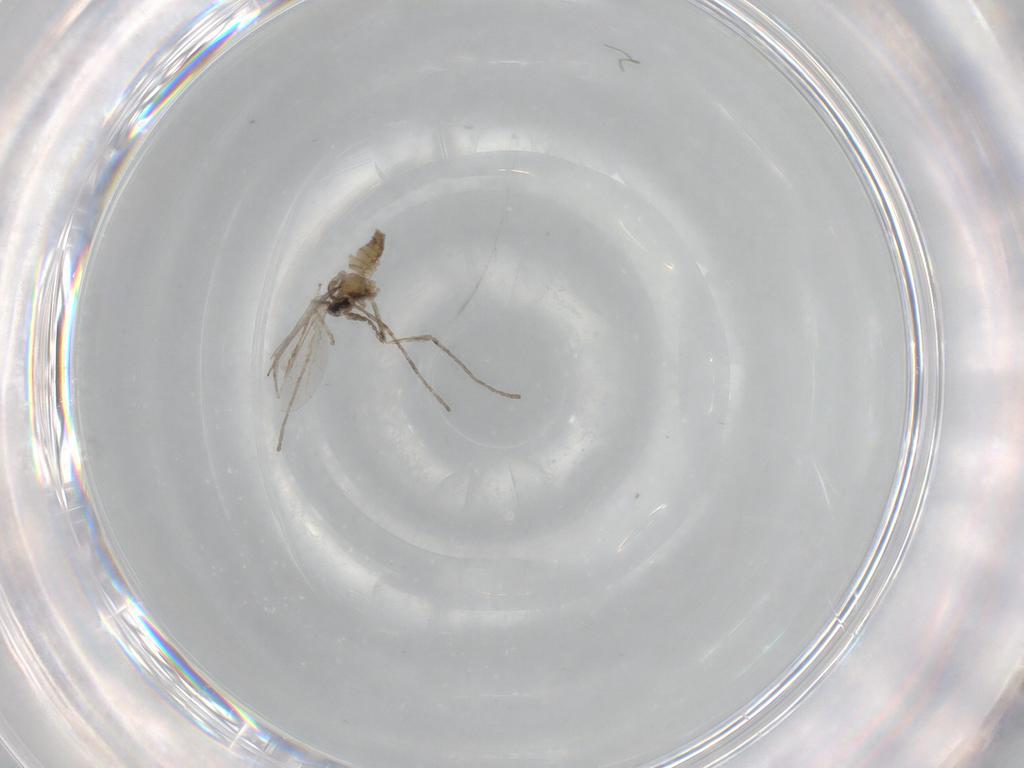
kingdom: Animalia
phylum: Arthropoda
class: Insecta
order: Diptera
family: Cecidomyiidae
